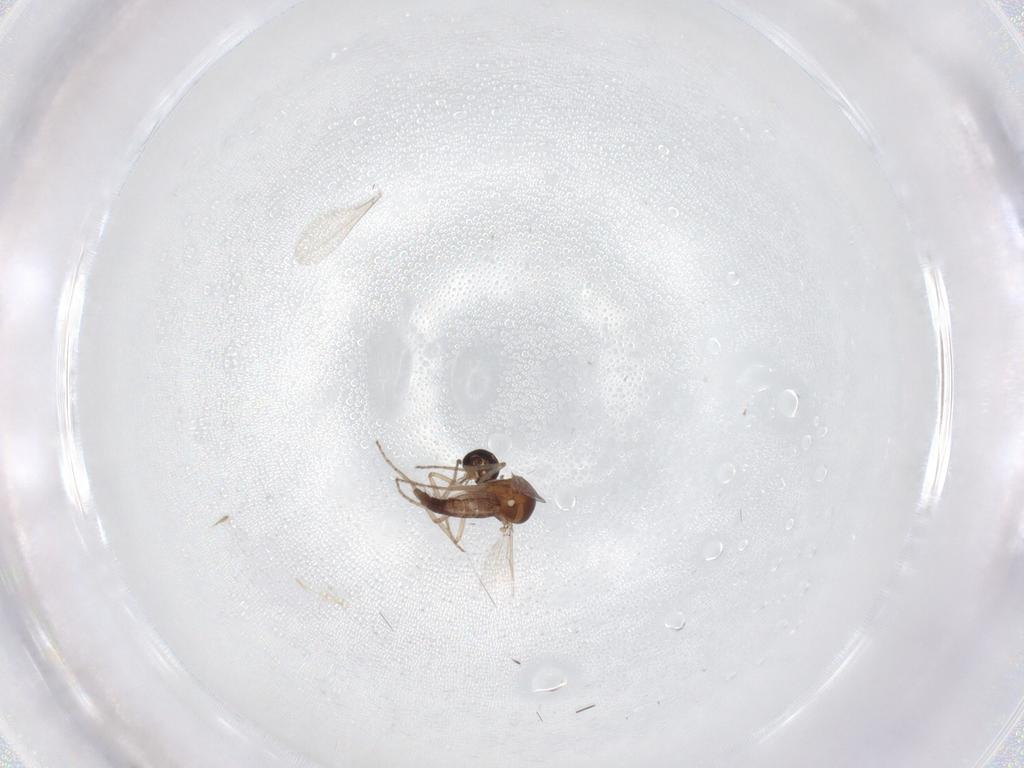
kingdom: Animalia
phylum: Arthropoda
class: Insecta
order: Diptera
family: Ceratopogonidae
